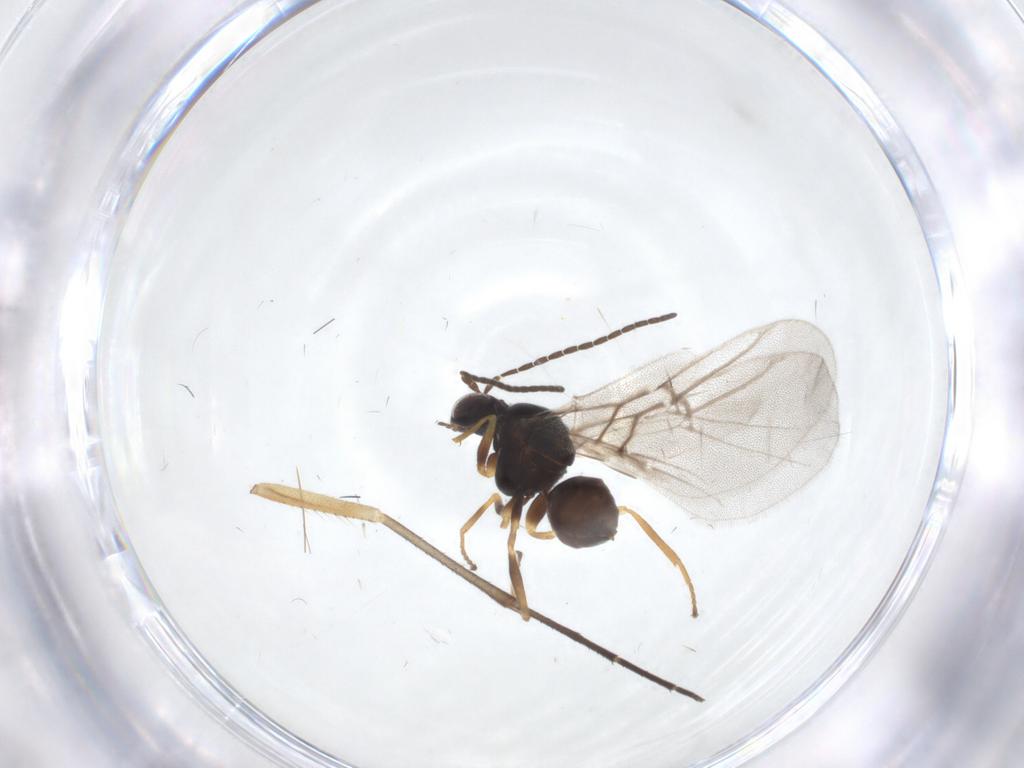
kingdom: Animalia
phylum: Arthropoda
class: Insecta
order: Hymenoptera
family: Cynipidae
